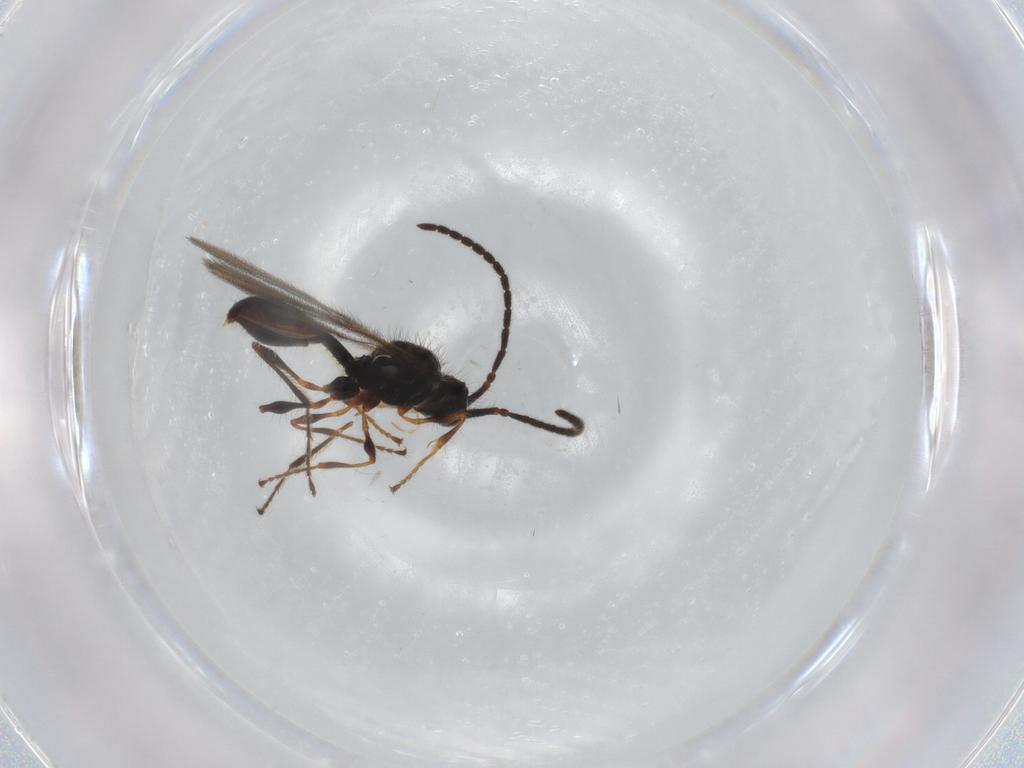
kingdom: Animalia
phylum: Arthropoda
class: Insecta
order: Hymenoptera
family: Diapriidae
